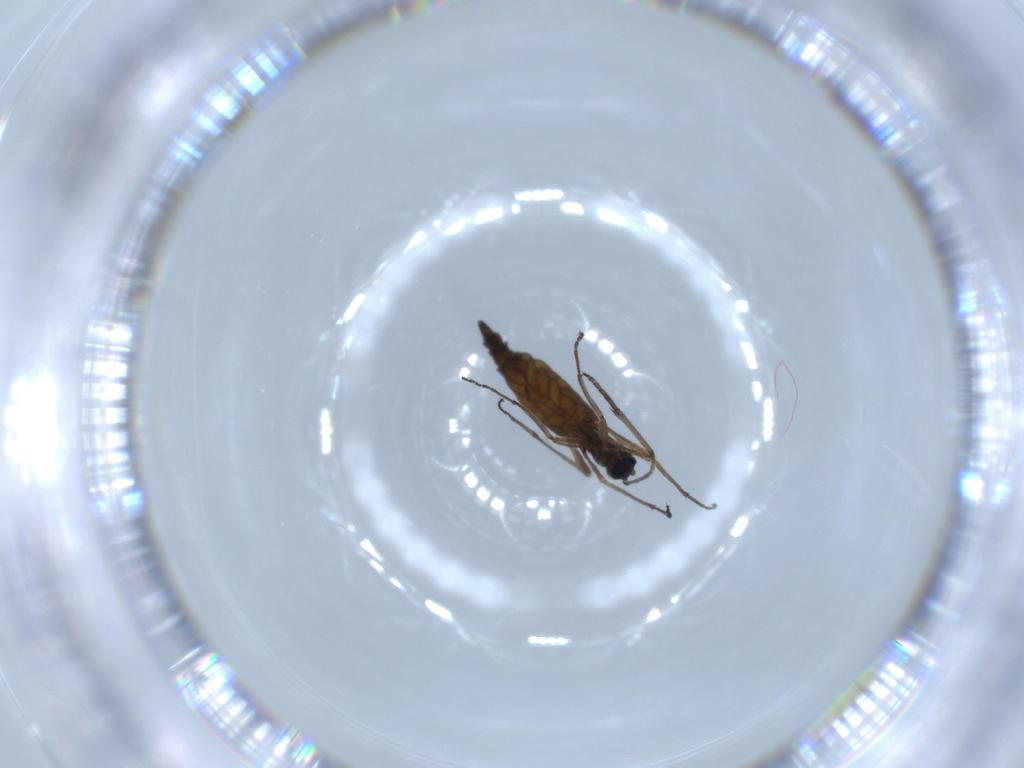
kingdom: Animalia
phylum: Arthropoda
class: Insecta
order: Diptera
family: Sciaridae
